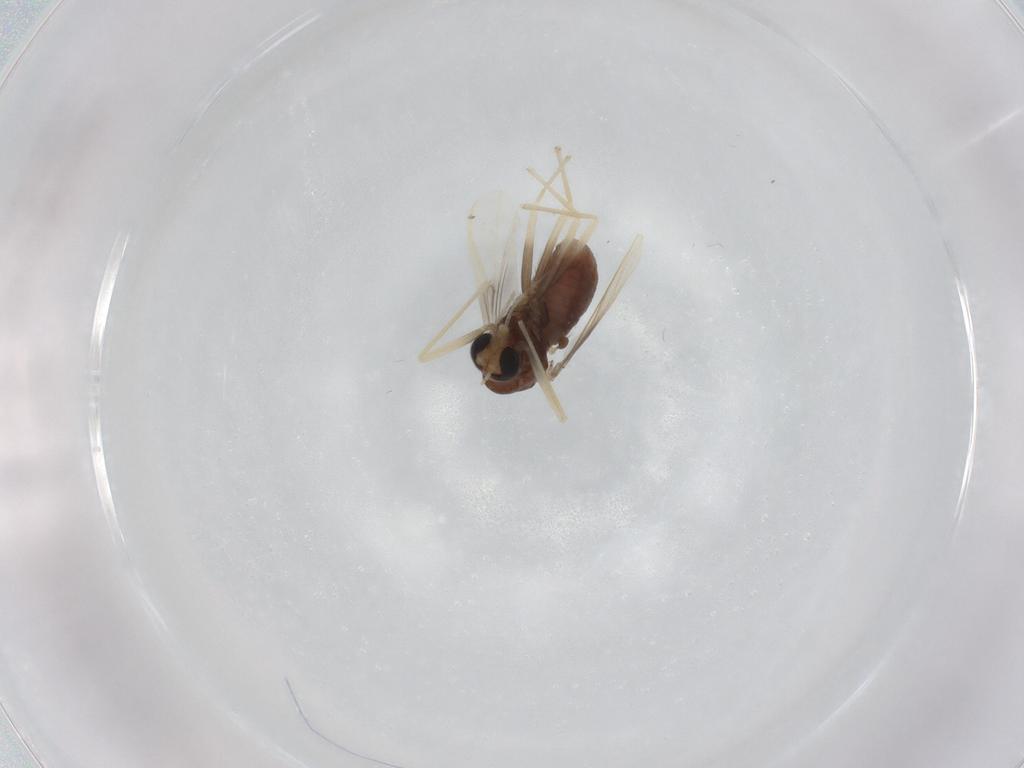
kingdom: Animalia
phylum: Arthropoda
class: Insecta
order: Diptera
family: Chironomidae
